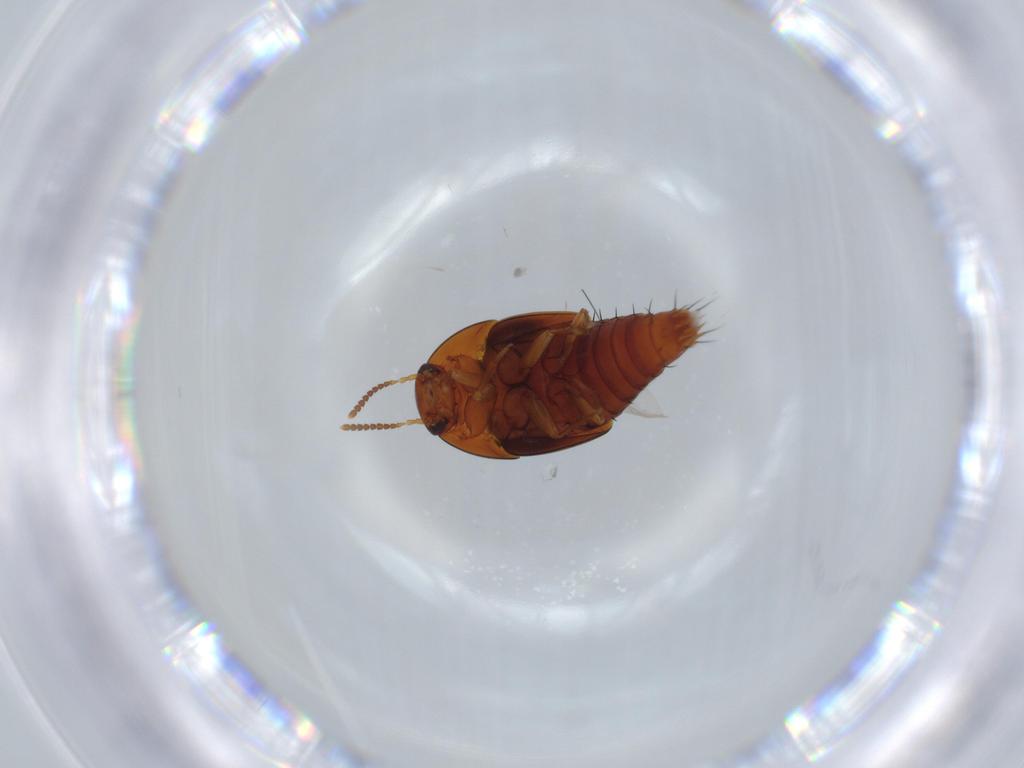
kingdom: Animalia
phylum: Arthropoda
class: Insecta
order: Coleoptera
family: Staphylinidae
